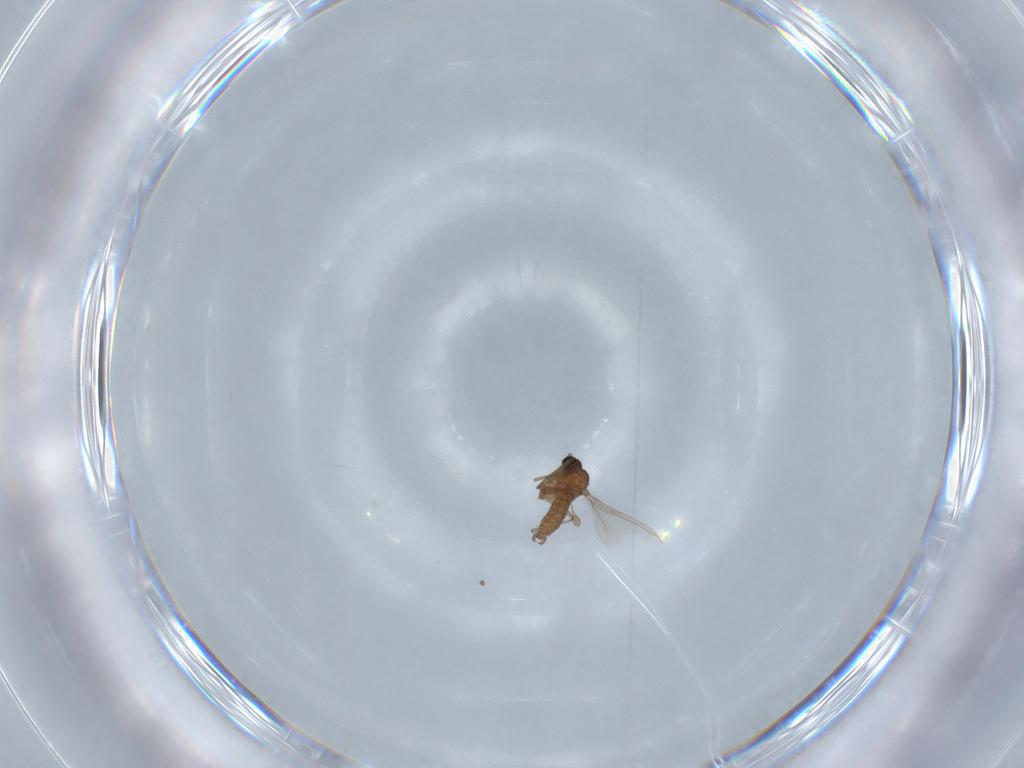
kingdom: Animalia
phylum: Arthropoda
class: Insecta
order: Diptera
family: Sciaridae
